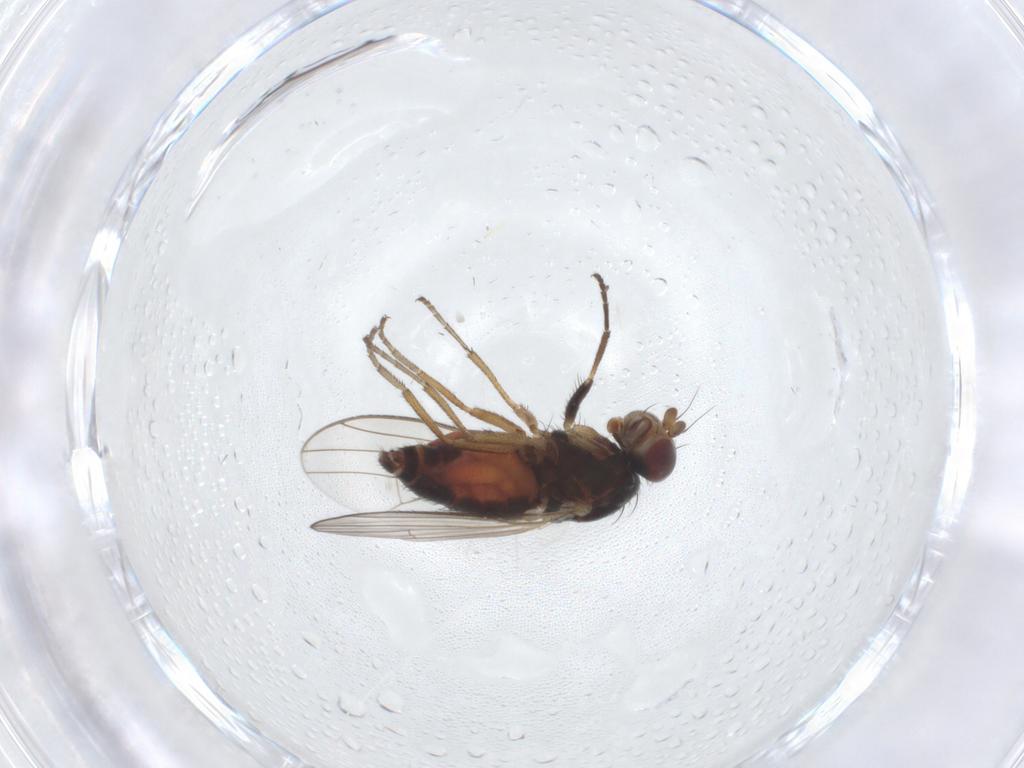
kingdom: Animalia
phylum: Arthropoda
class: Insecta
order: Diptera
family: Heleomyzidae
